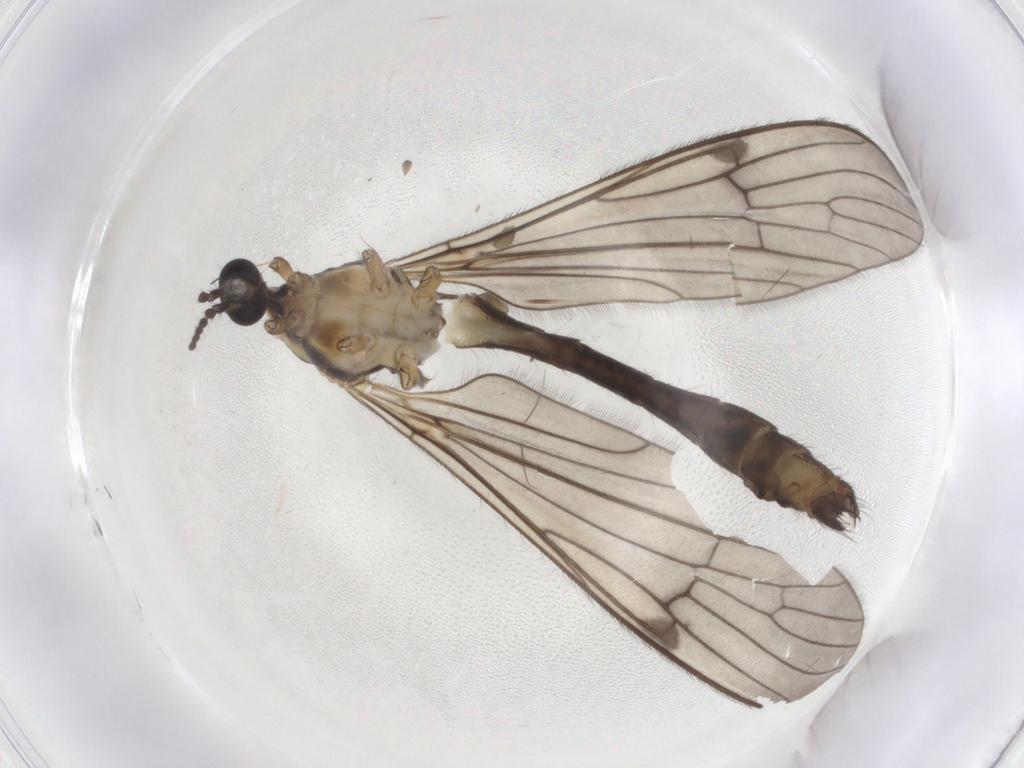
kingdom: Animalia
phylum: Arthropoda
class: Insecta
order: Diptera
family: Limoniidae
